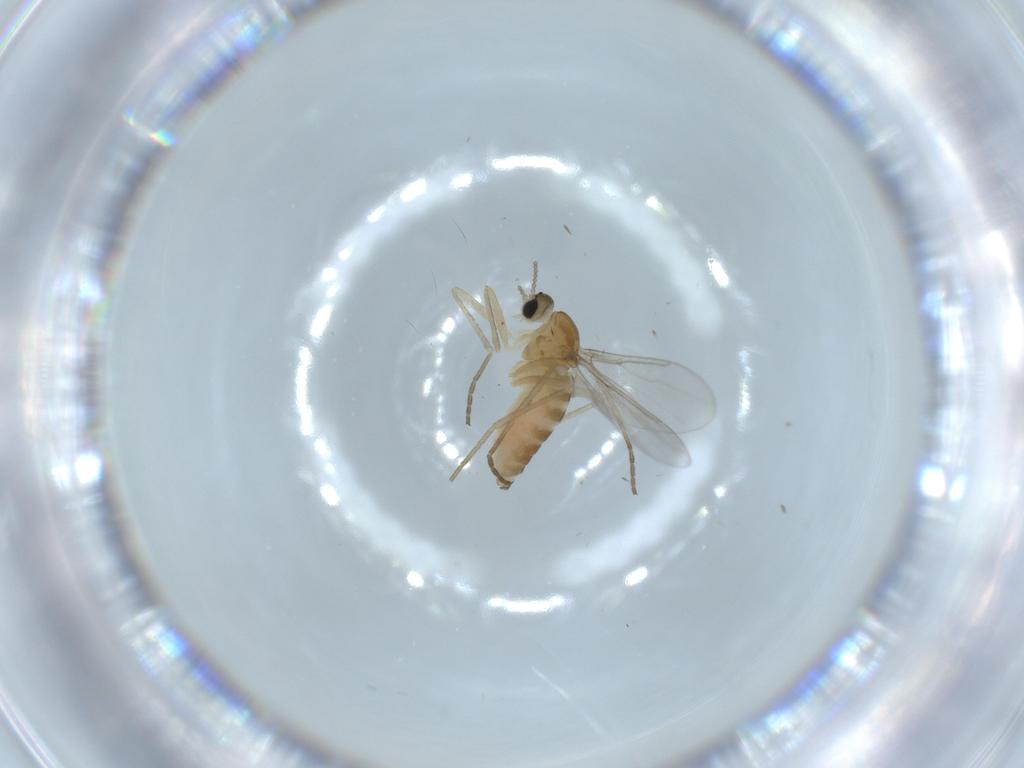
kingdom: Animalia
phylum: Arthropoda
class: Insecta
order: Diptera
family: Cecidomyiidae
